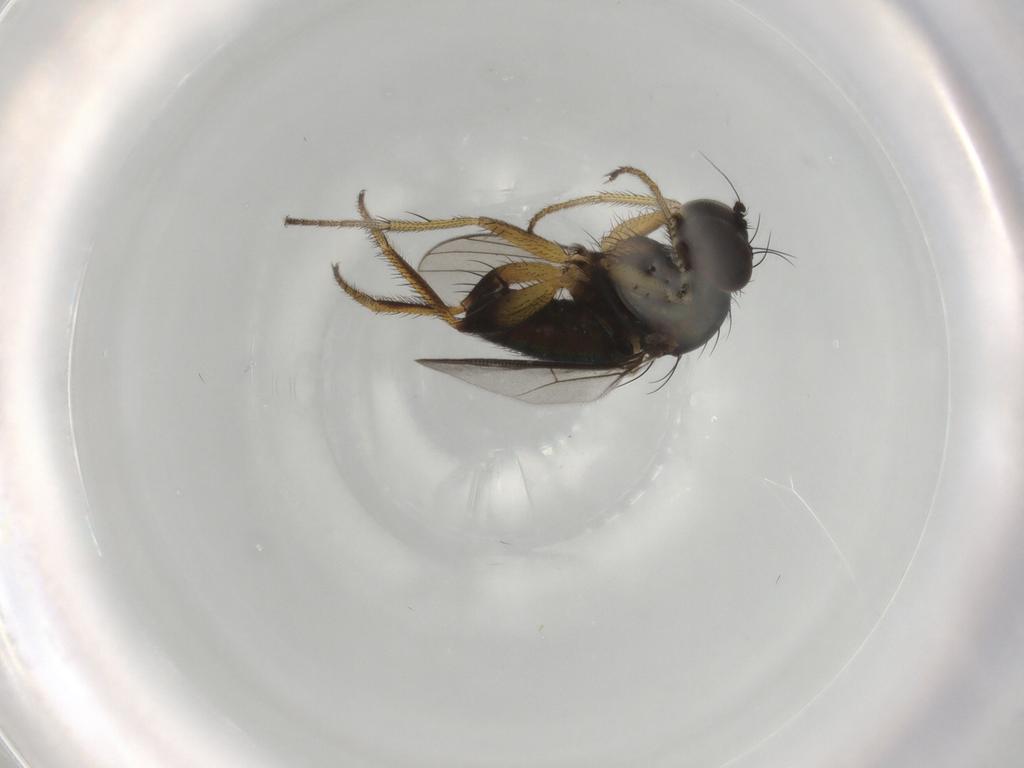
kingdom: Animalia
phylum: Arthropoda
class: Insecta
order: Diptera
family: Dolichopodidae
